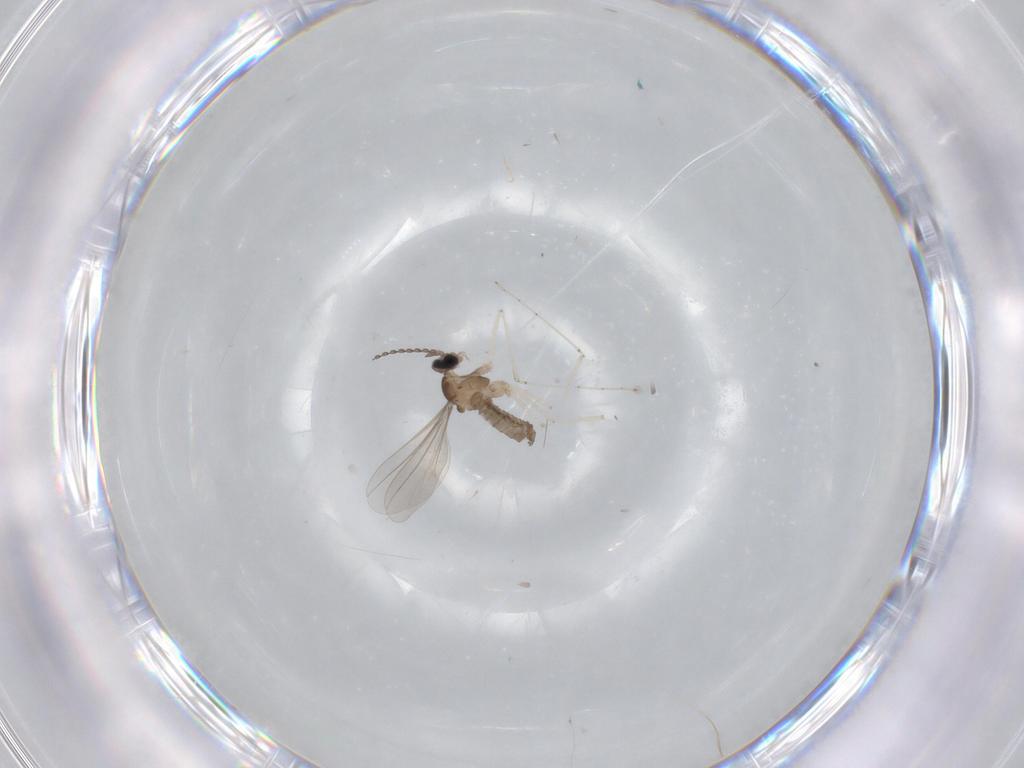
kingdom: Animalia
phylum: Arthropoda
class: Insecta
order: Diptera
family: Cecidomyiidae
